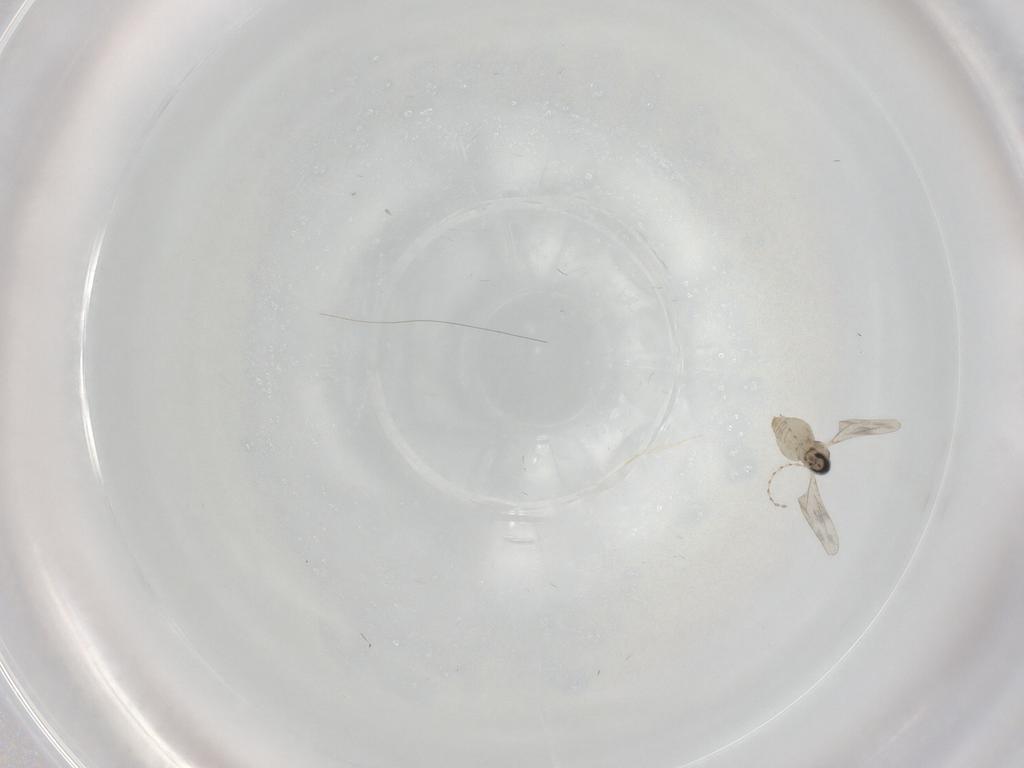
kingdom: Animalia
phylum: Arthropoda
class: Insecta
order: Diptera
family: Cecidomyiidae
